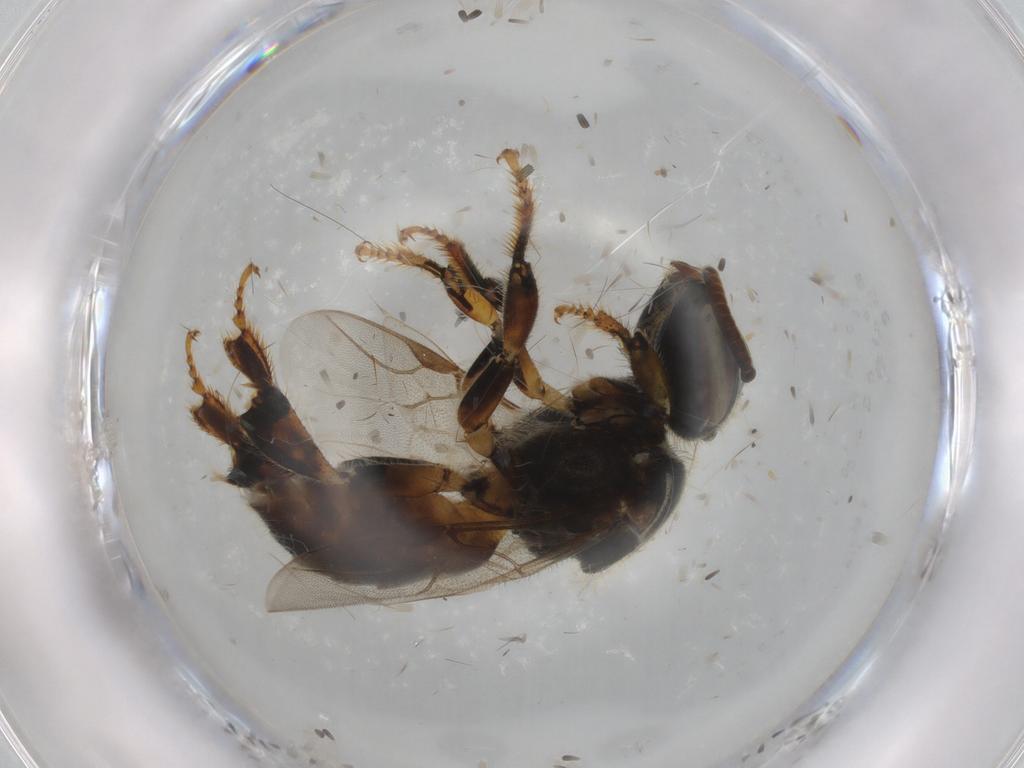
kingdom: Animalia
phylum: Arthropoda
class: Insecta
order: Hymenoptera
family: Apidae
